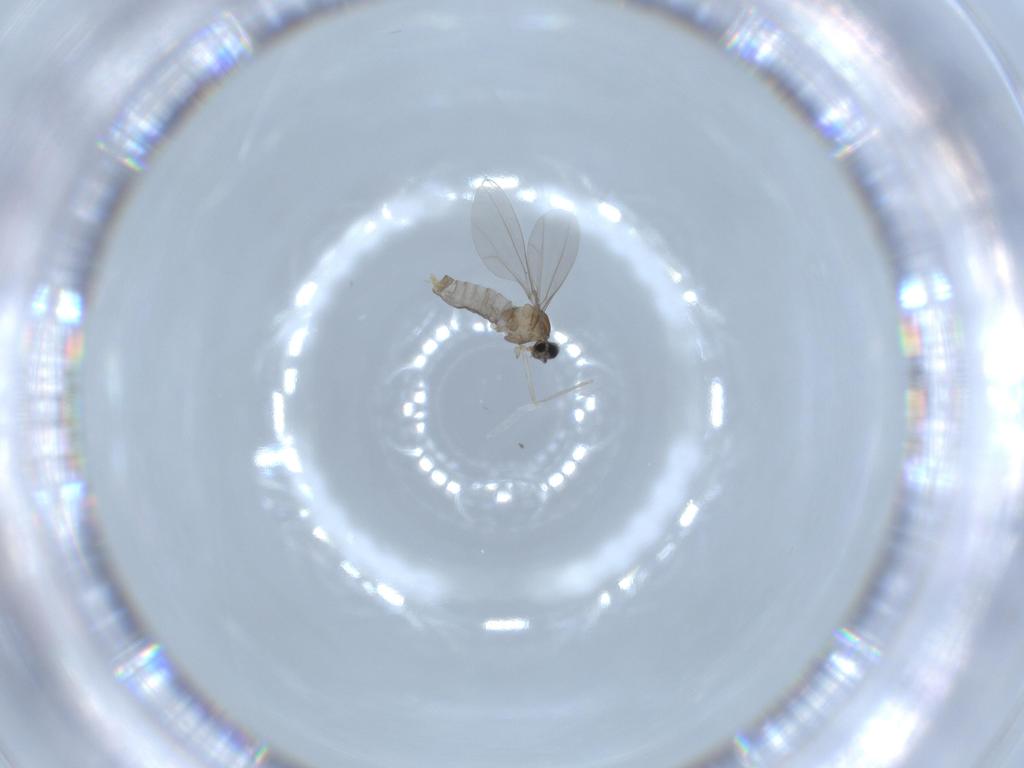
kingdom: Animalia
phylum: Arthropoda
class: Insecta
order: Diptera
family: Cecidomyiidae
